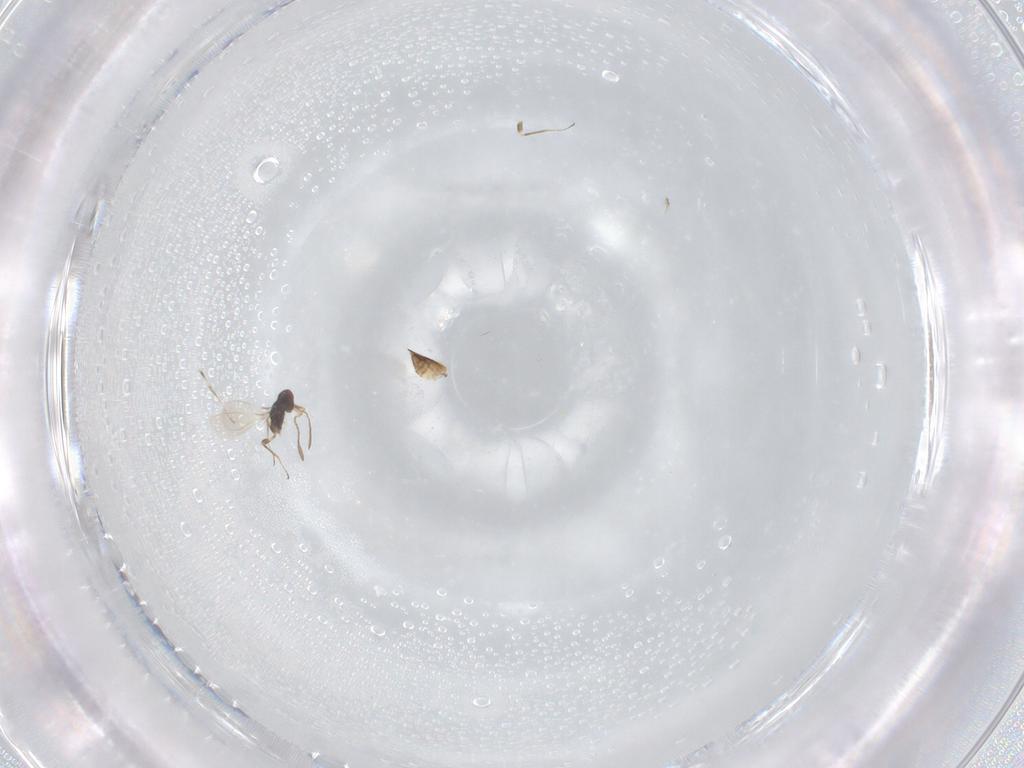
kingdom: Animalia
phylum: Arthropoda
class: Insecta
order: Hymenoptera
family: Mymaridae
